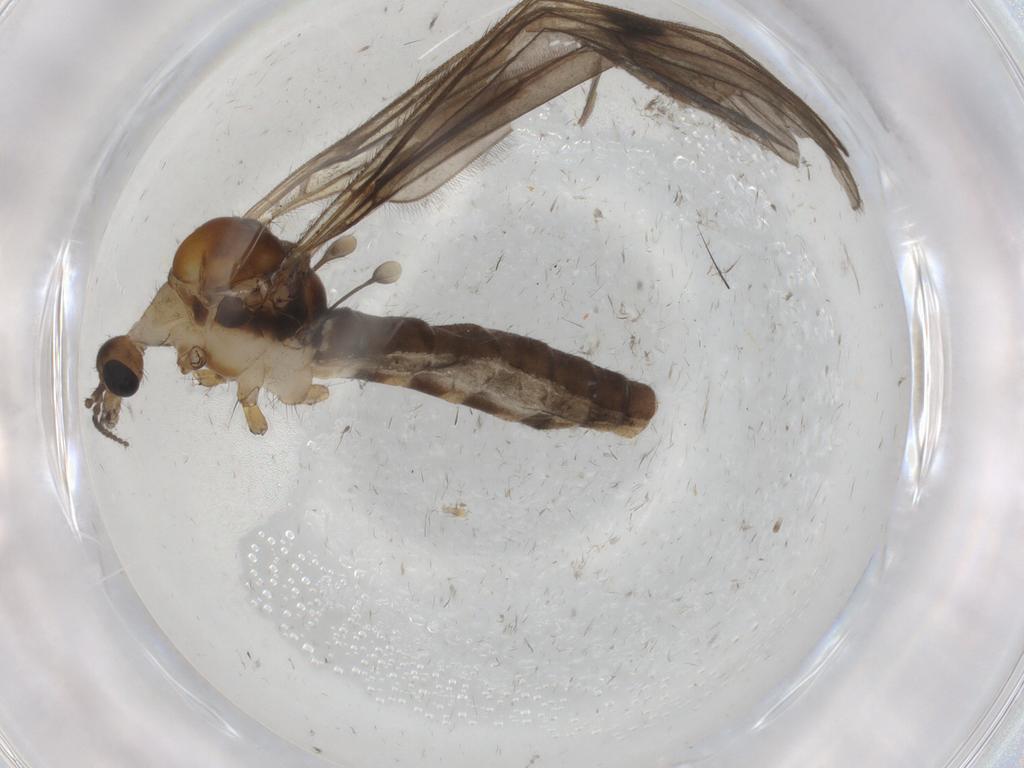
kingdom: Animalia
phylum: Arthropoda
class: Insecta
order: Diptera
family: Limoniidae
